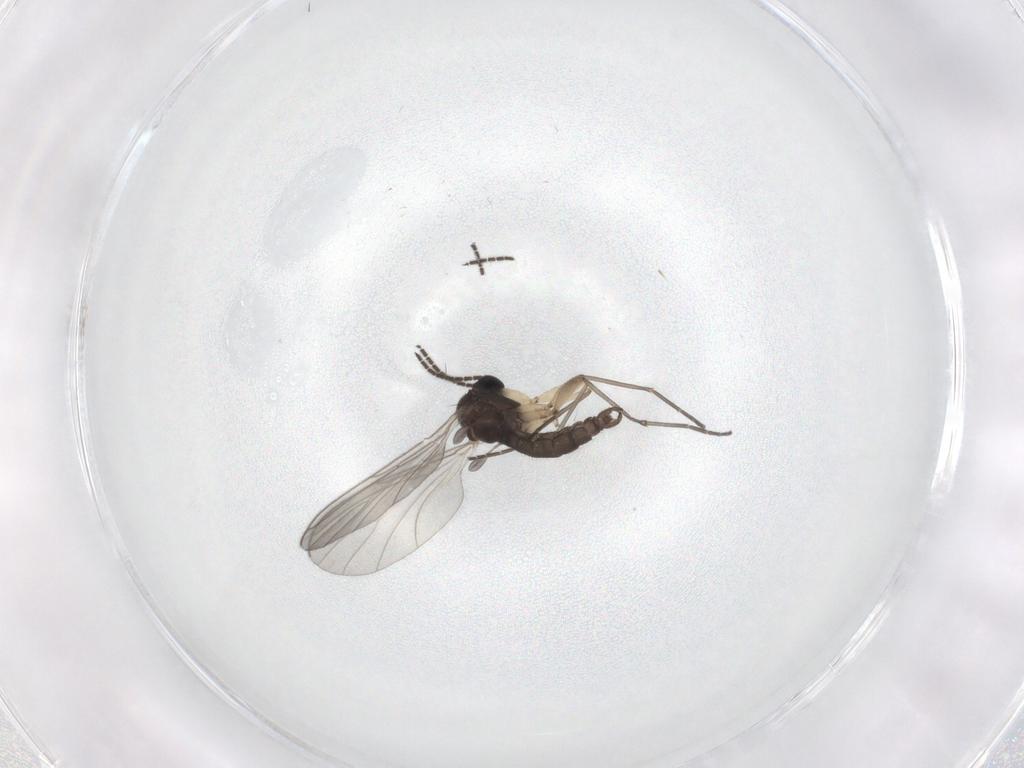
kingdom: Animalia
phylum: Arthropoda
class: Insecta
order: Diptera
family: Sciaridae
